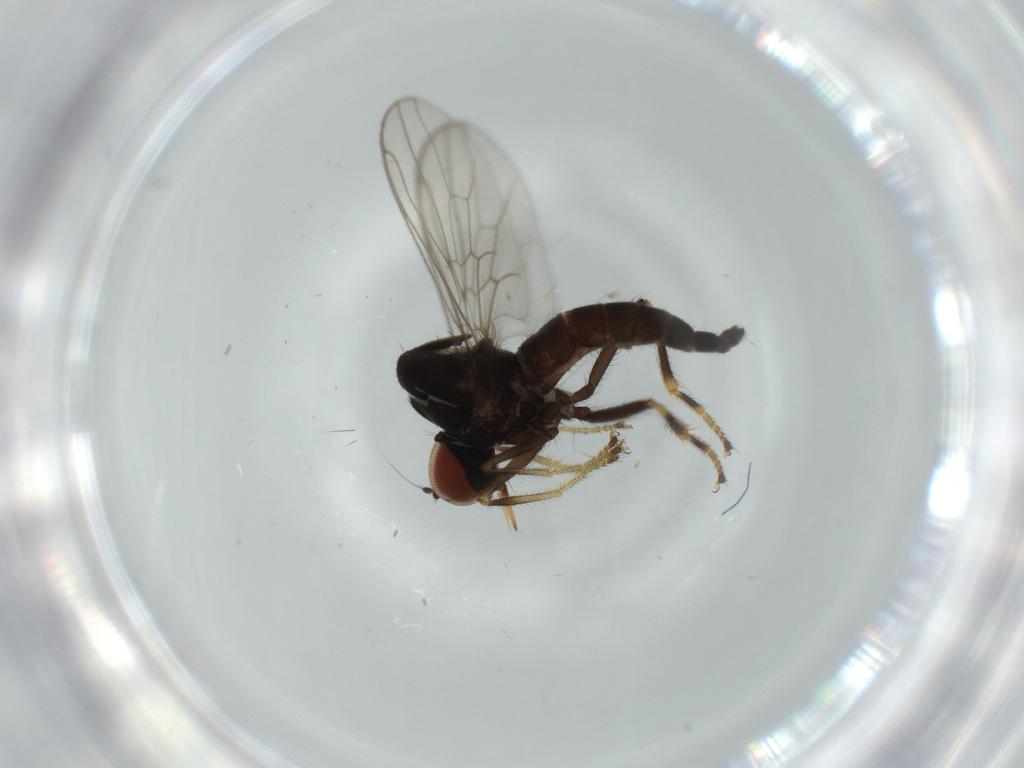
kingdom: Animalia
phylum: Arthropoda
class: Insecta
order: Diptera
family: Hybotidae
